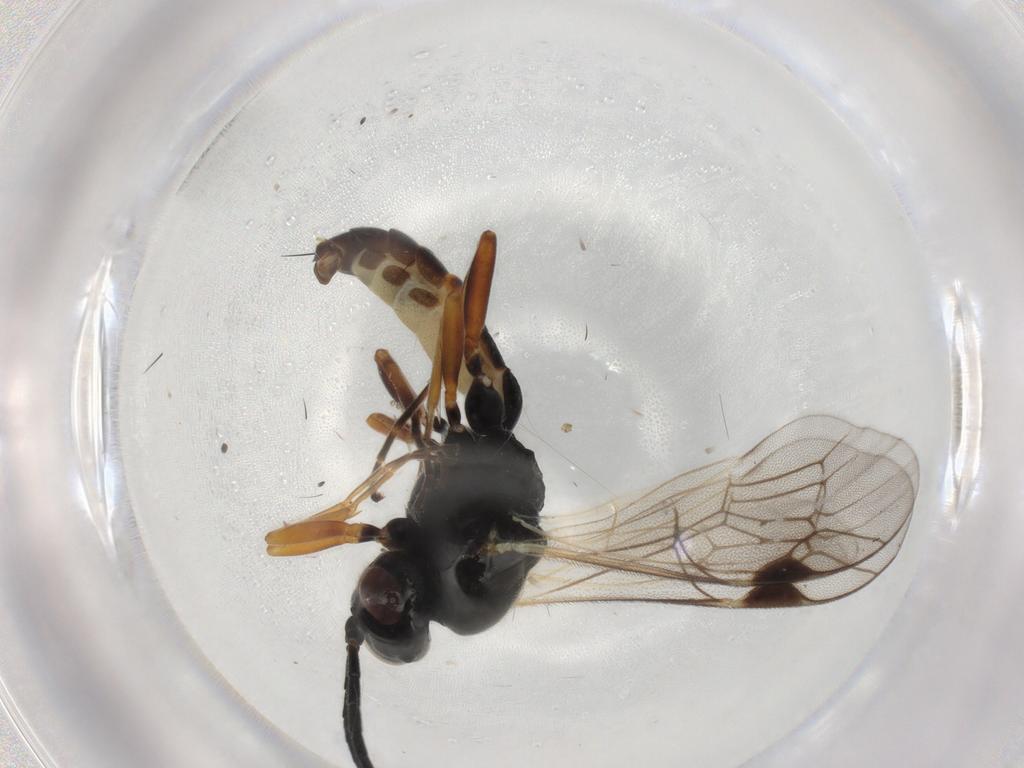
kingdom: Animalia
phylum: Arthropoda
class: Insecta
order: Hymenoptera
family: Ichneumonidae
